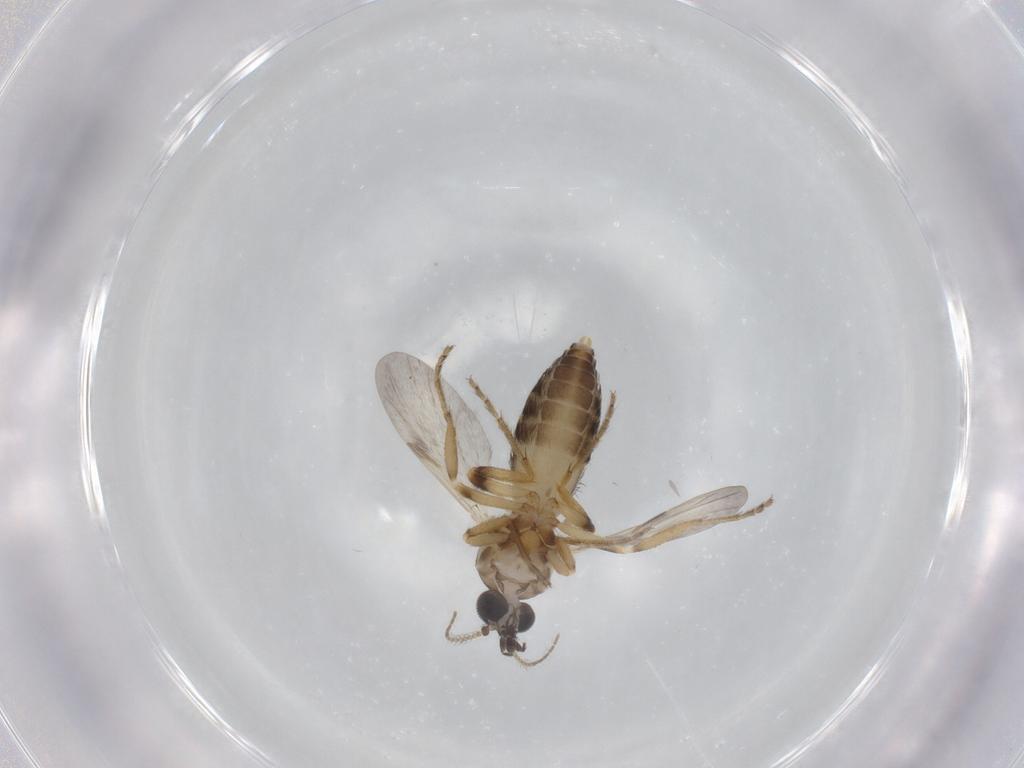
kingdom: Animalia
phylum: Arthropoda
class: Insecta
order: Diptera
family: Ceratopogonidae
